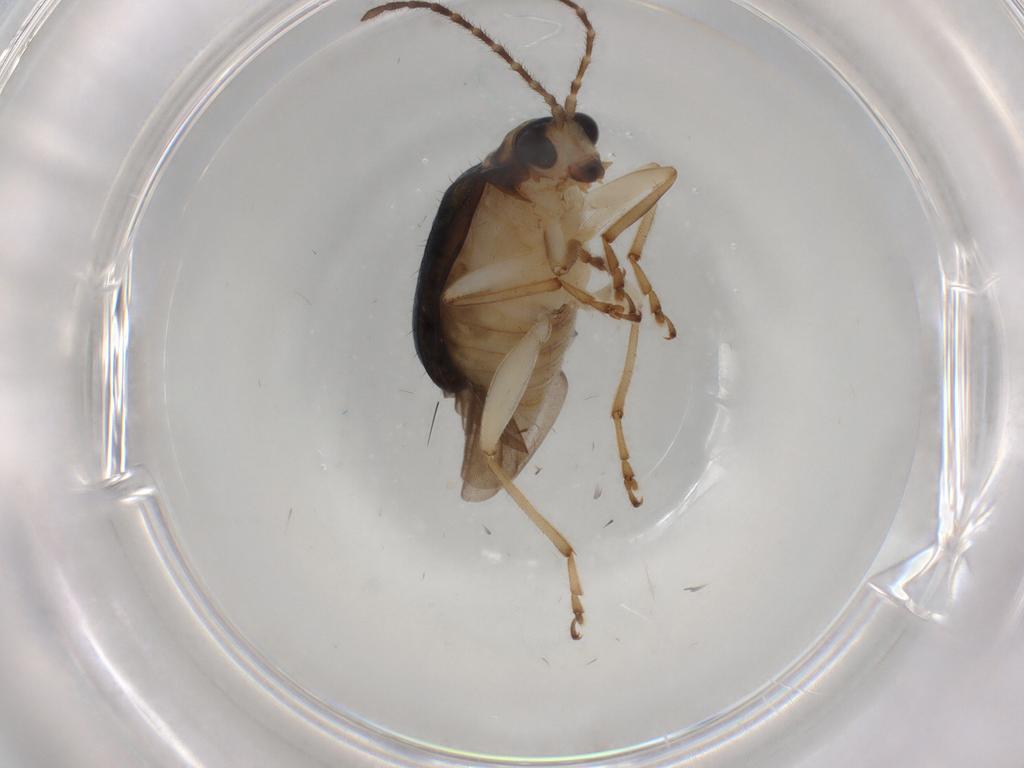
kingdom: Animalia
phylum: Arthropoda
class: Insecta
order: Coleoptera
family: Chrysomelidae
